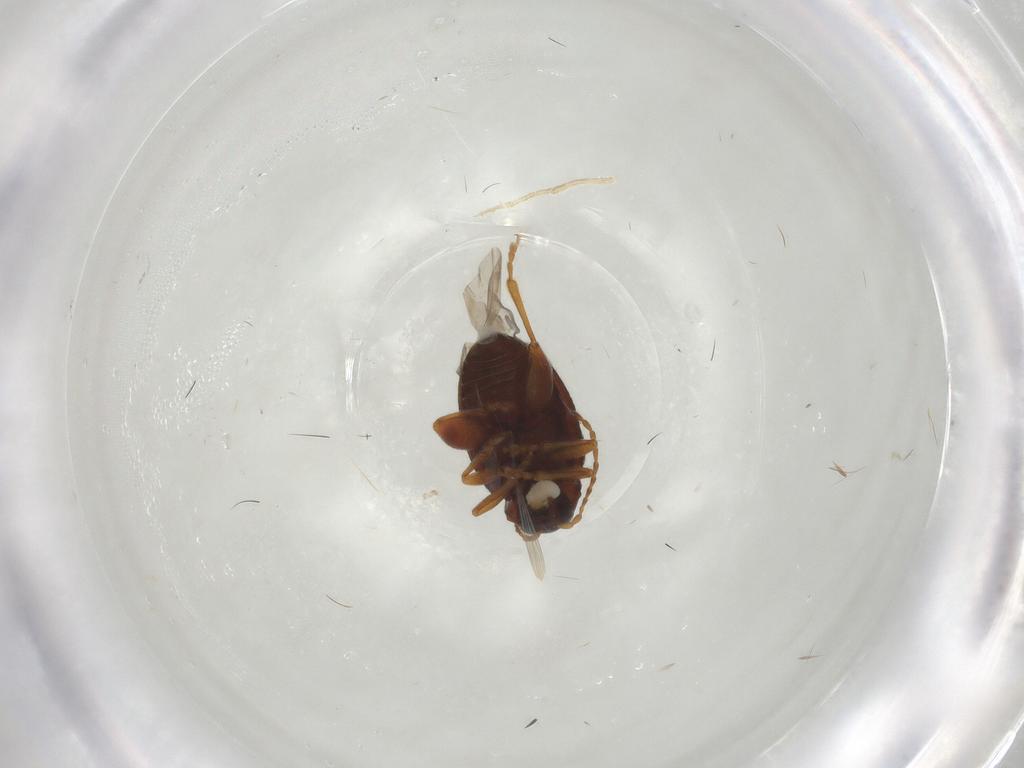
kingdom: Animalia
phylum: Arthropoda
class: Insecta
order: Coleoptera
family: Chrysomelidae
